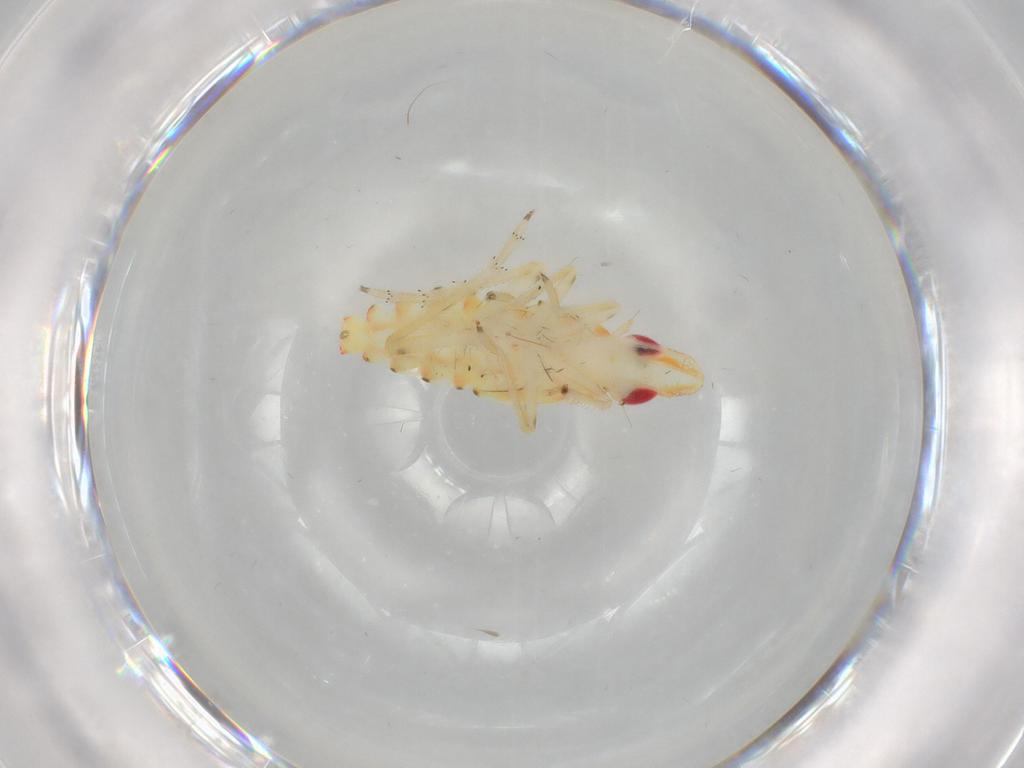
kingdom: Animalia
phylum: Arthropoda
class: Insecta
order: Hemiptera
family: Tropiduchidae
